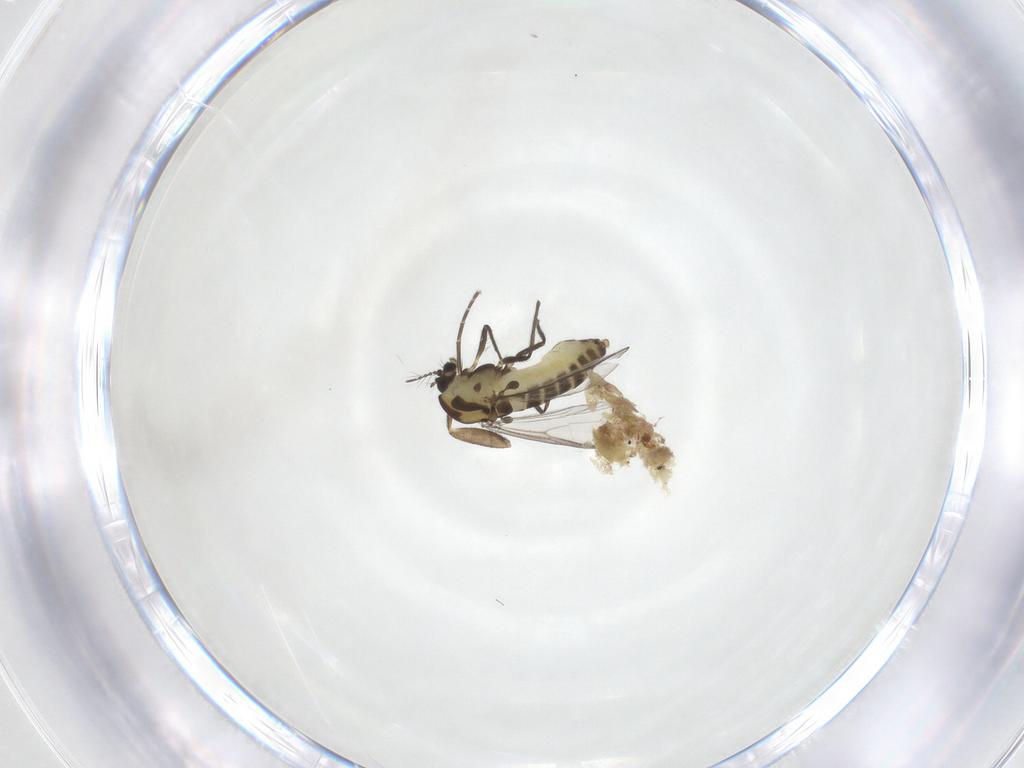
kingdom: Animalia
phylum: Arthropoda
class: Insecta
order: Diptera
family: Chironomidae
